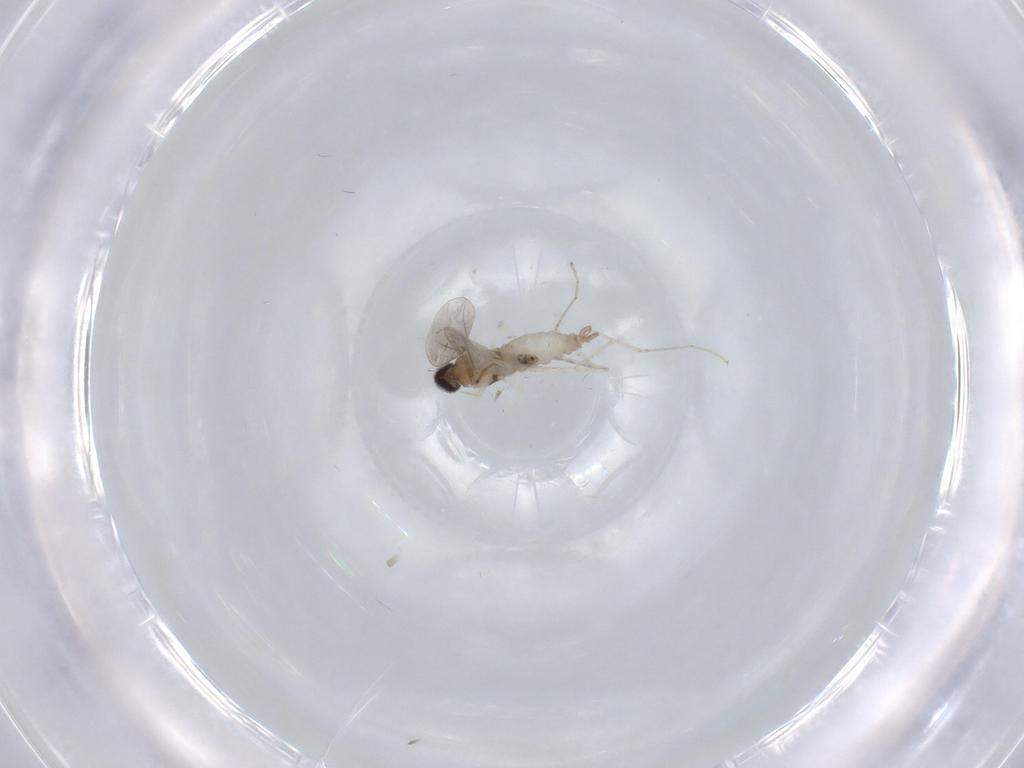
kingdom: Animalia
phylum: Arthropoda
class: Insecta
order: Diptera
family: Cecidomyiidae
